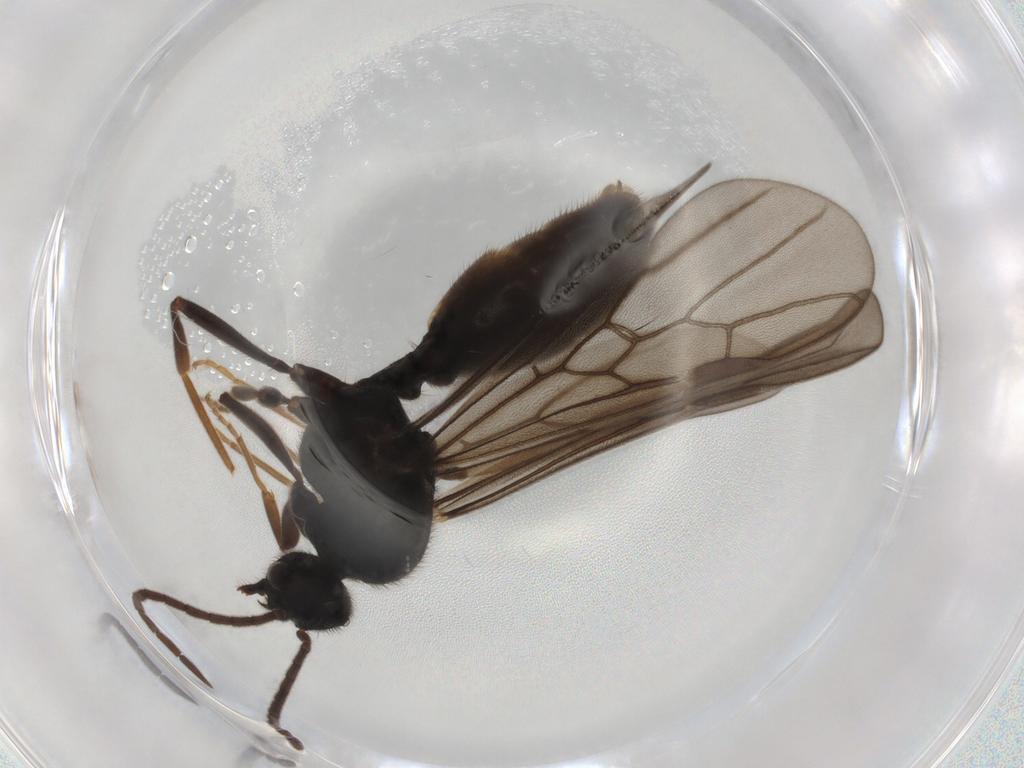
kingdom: Animalia
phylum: Arthropoda
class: Insecta
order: Hymenoptera
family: Formicidae
